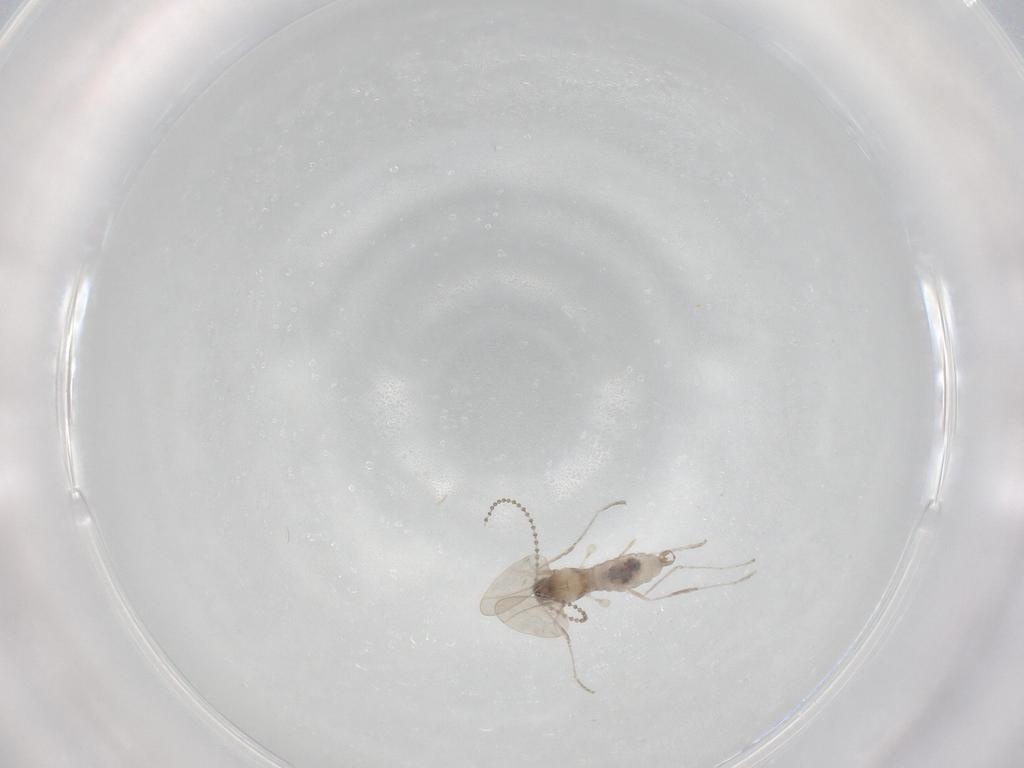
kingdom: Animalia
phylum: Arthropoda
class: Insecta
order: Diptera
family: Cecidomyiidae
